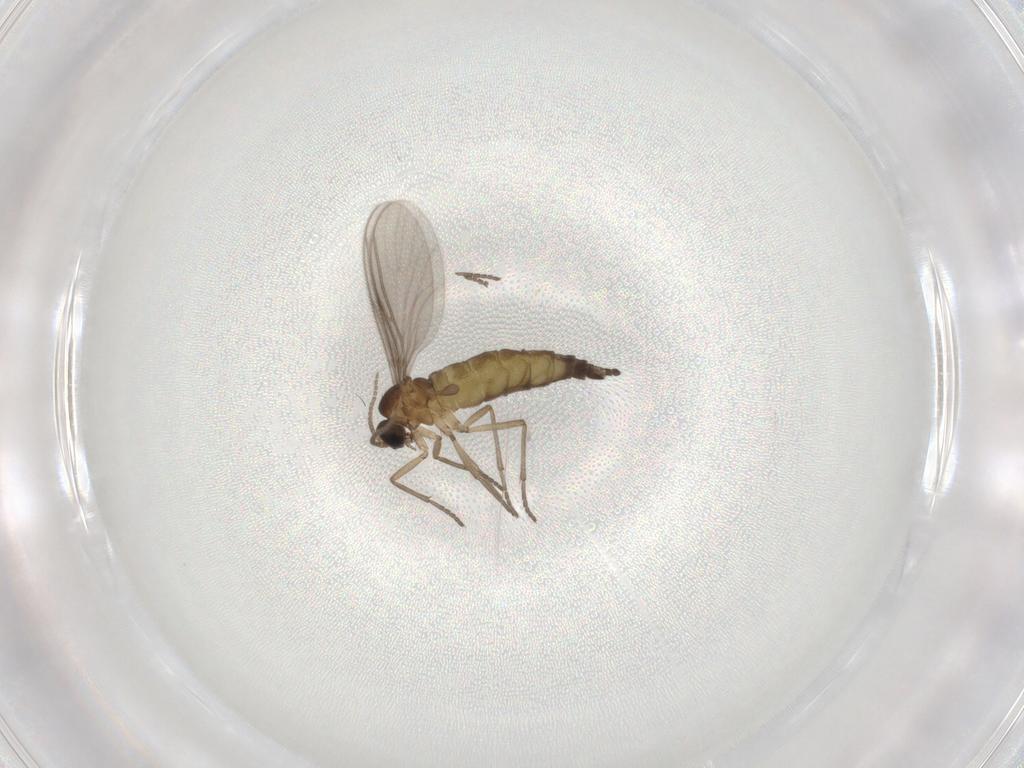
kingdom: Animalia
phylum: Arthropoda
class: Insecta
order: Diptera
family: Sciaridae
